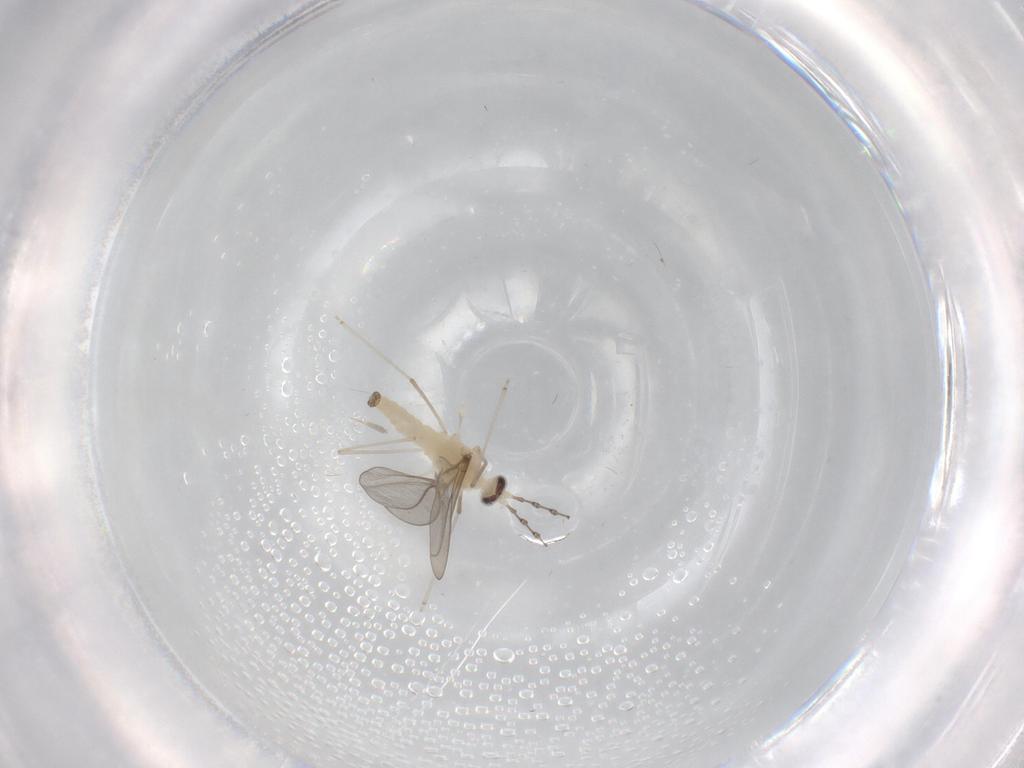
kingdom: Animalia
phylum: Arthropoda
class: Insecta
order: Diptera
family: Cecidomyiidae
